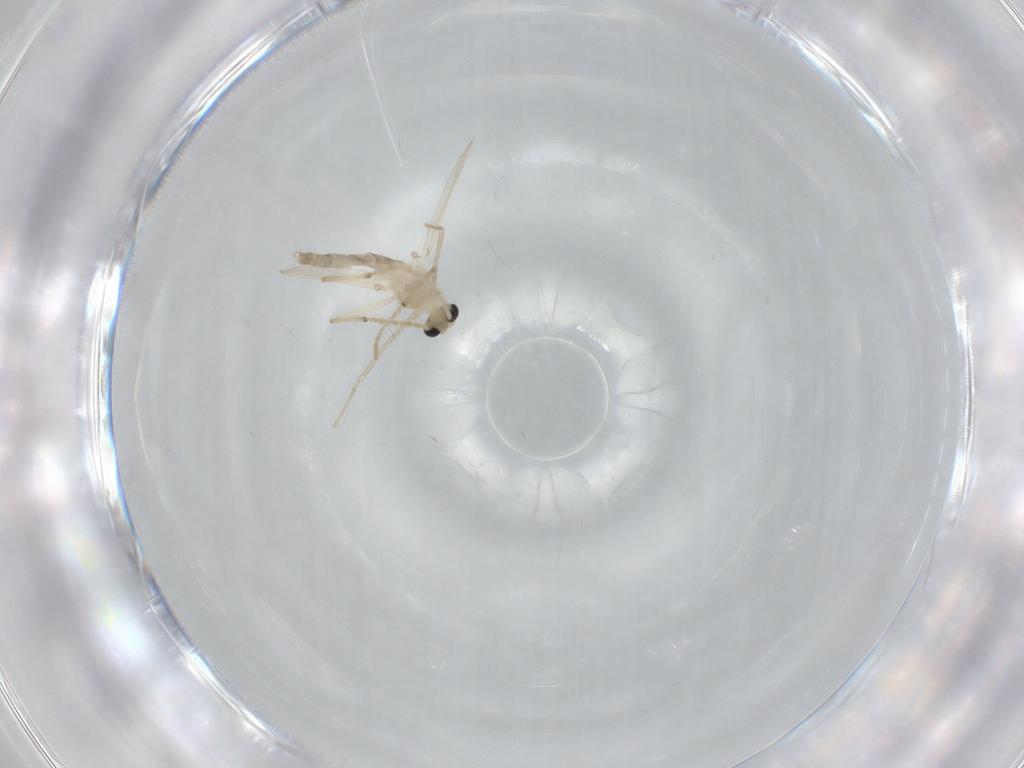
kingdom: Animalia
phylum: Arthropoda
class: Insecta
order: Diptera
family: Chironomidae
